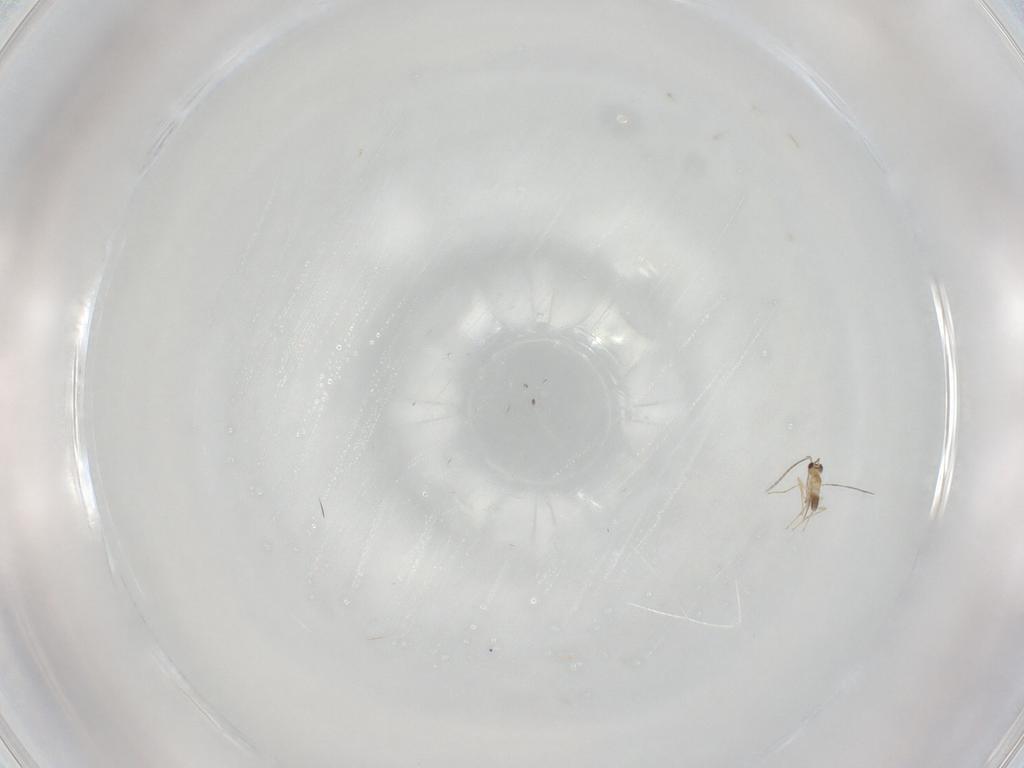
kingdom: Animalia
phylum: Arthropoda
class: Insecta
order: Hymenoptera
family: Mymaridae
